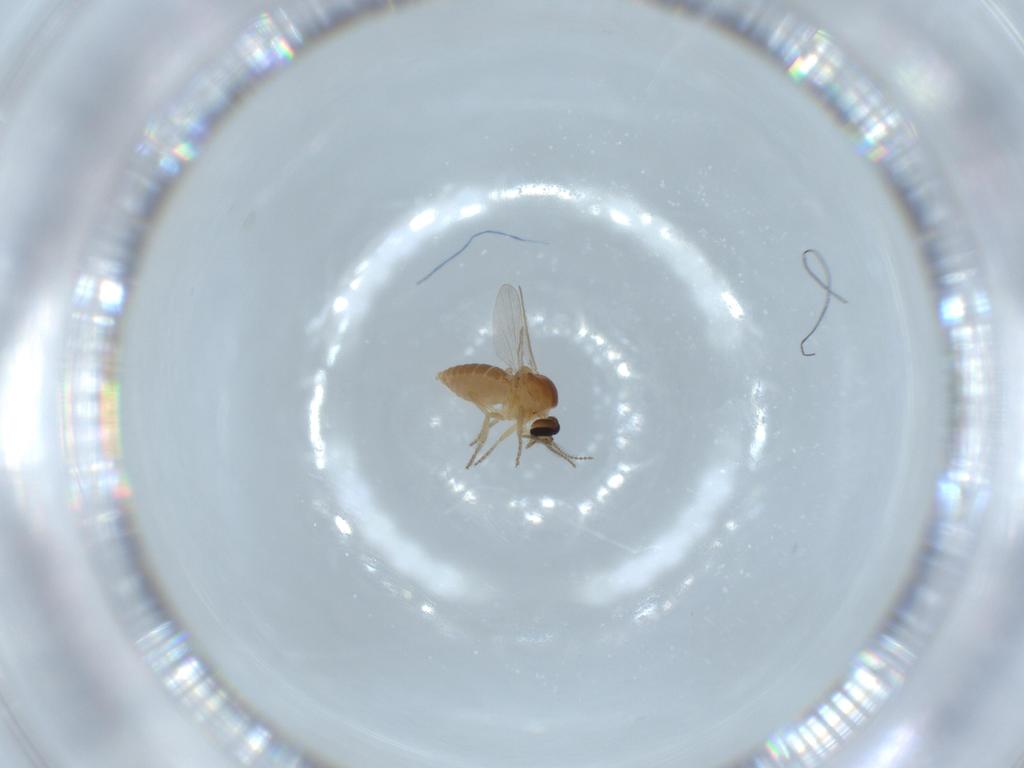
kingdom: Animalia
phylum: Arthropoda
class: Insecta
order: Diptera
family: Ceratopogonidae
